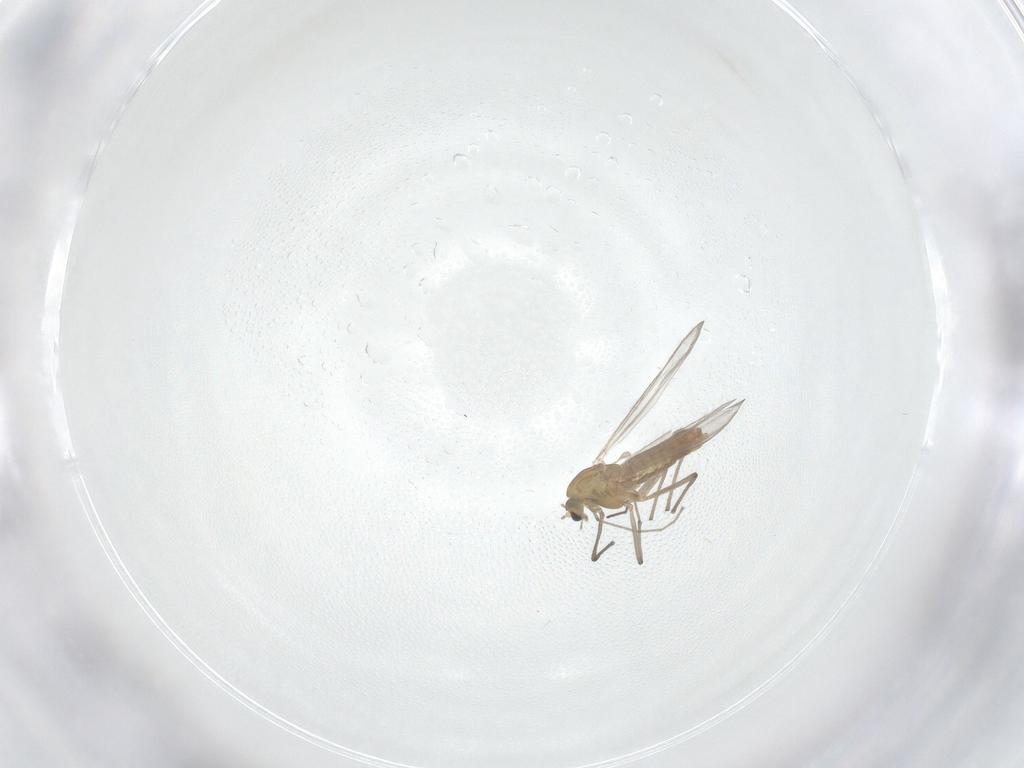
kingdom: Animalia
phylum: Arthropoda
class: Insecta
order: Diptera
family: Chironomidae
